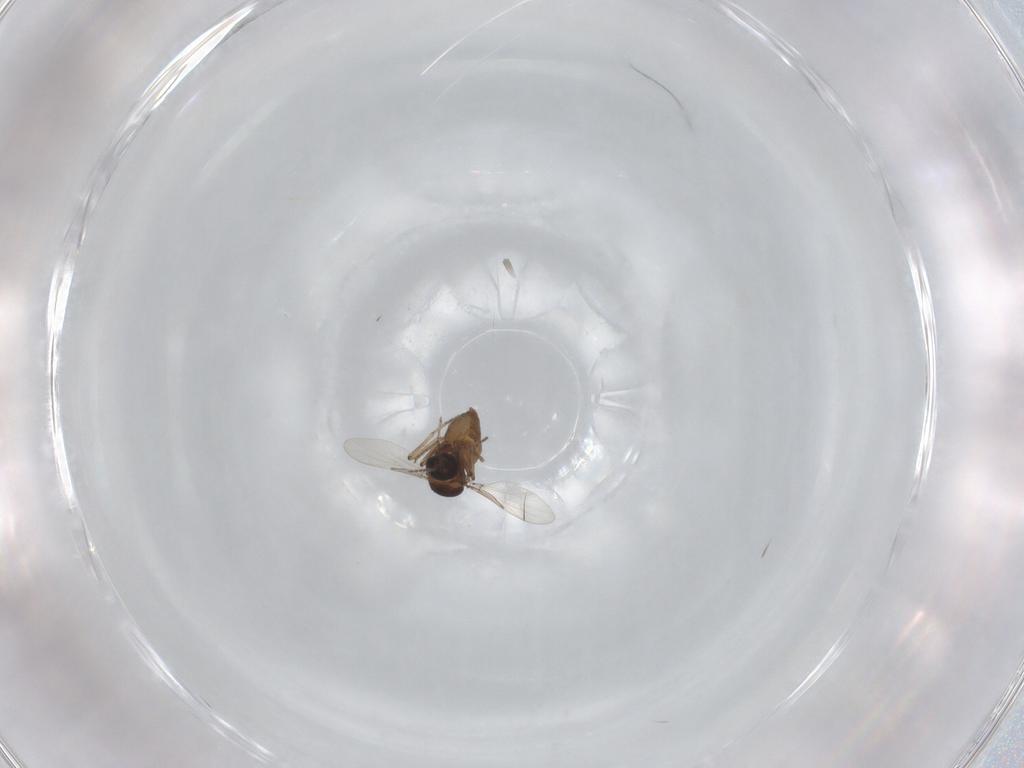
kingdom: Animalia
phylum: Arthropoda
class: Insecta
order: Diptera
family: Ceratopogonidae
